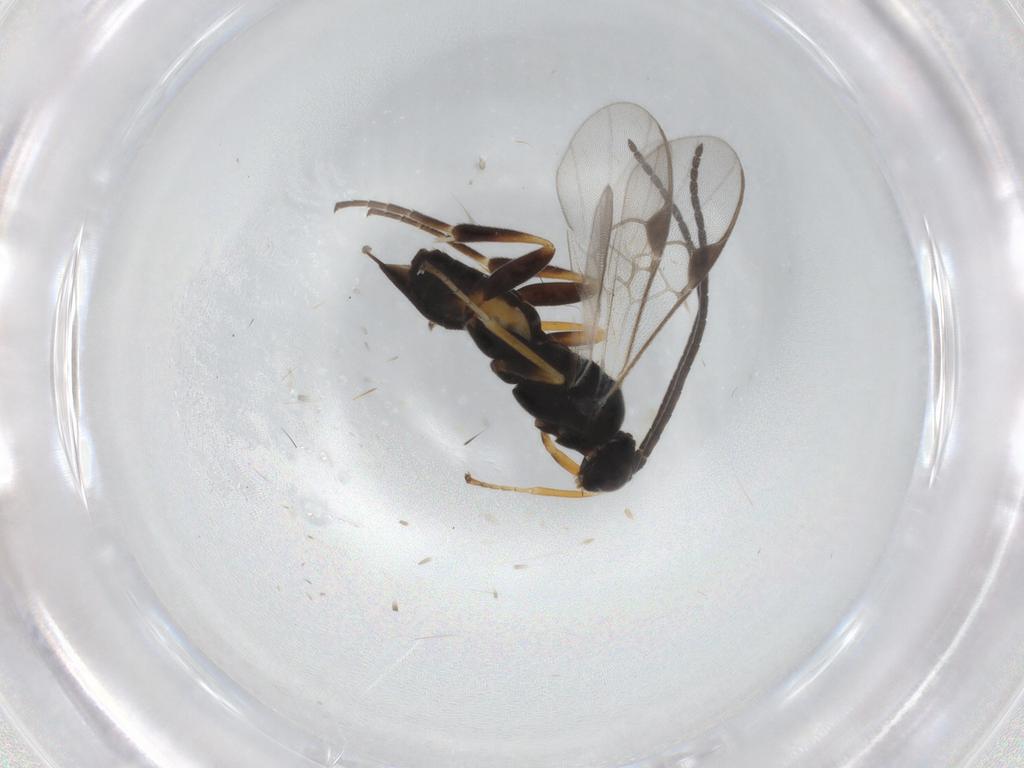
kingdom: Animalia
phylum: Arthropoda
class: Insecta
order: Hymenoptera
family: Braconidae
